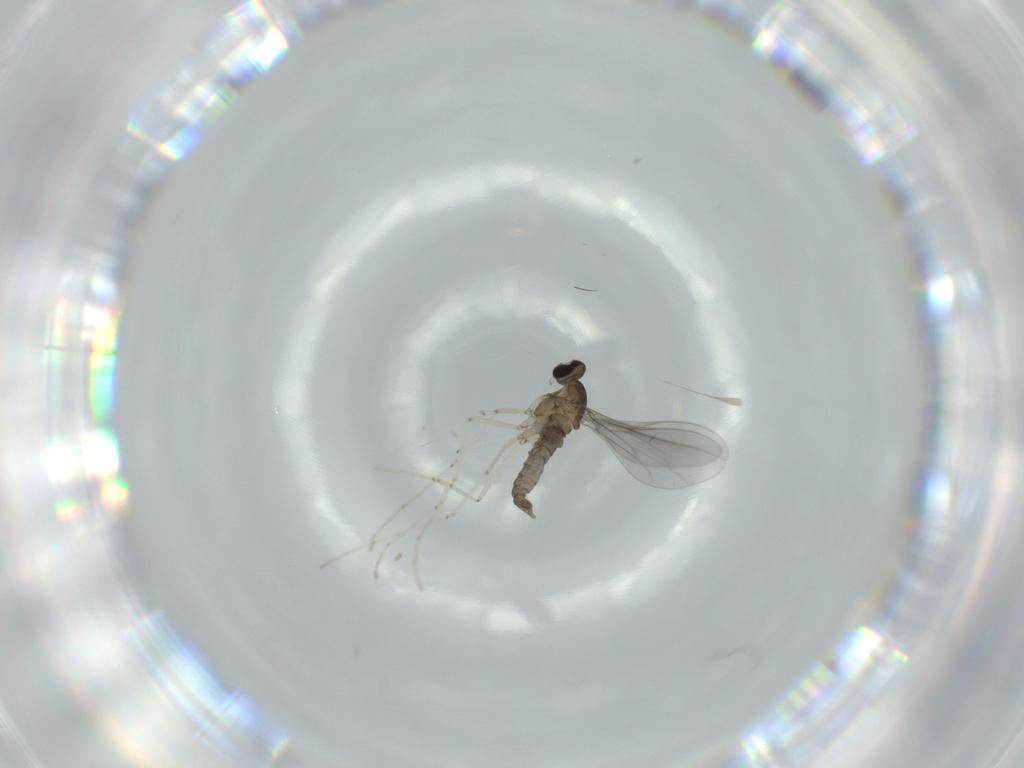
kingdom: Animalia
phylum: Arthropoda
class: Insecta
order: Diptera
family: Cecidomyiidae
